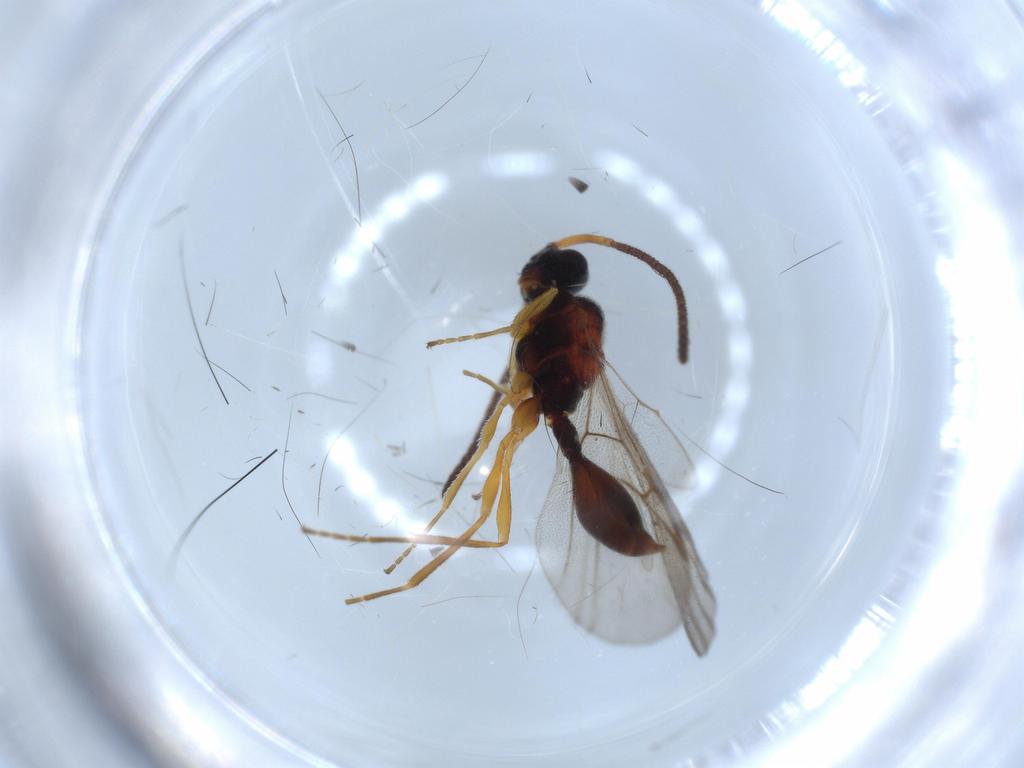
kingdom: Animalia
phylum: Arthropoda
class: Insecta
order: Hymenoptera
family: Diapriidae
